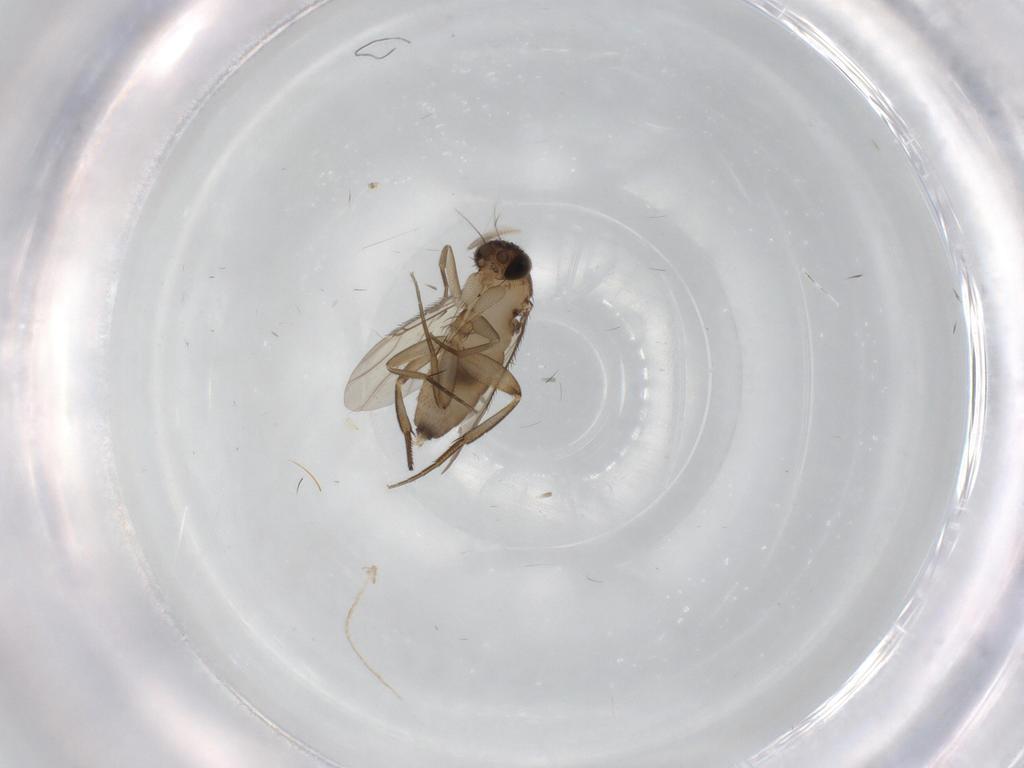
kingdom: Animalia
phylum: Arthropoda
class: Insecta
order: Diptera
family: Phoridae
